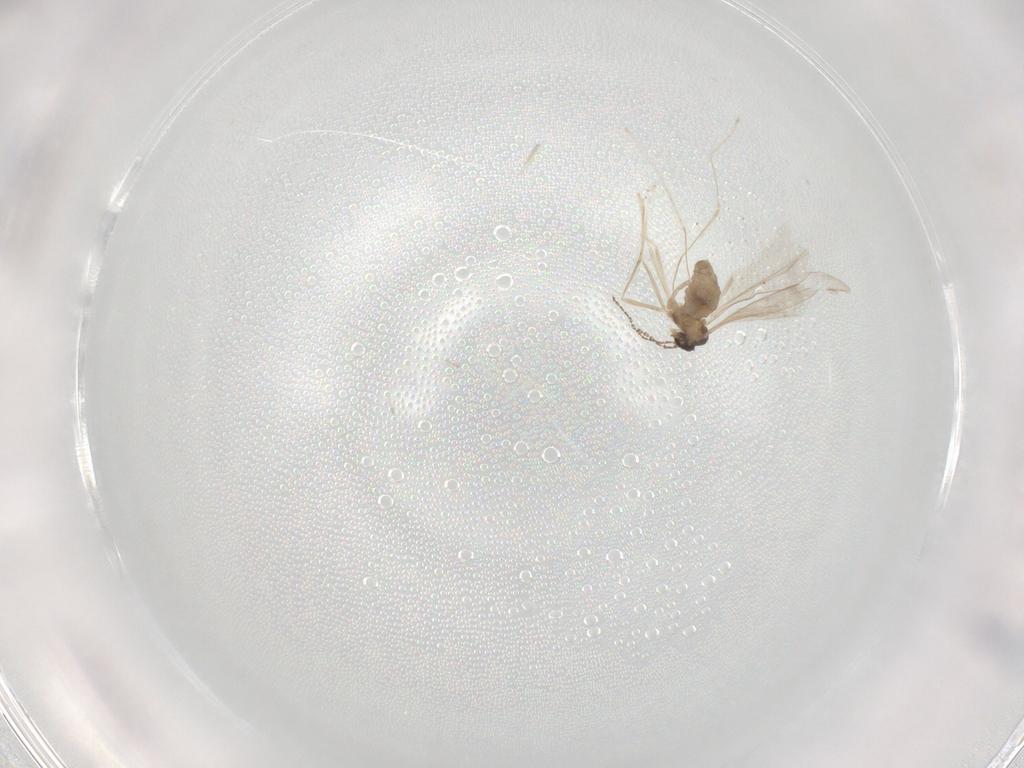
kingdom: Animalia
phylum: Arthropoda
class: Insecta
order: Diptera
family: Cecidomyiidae
